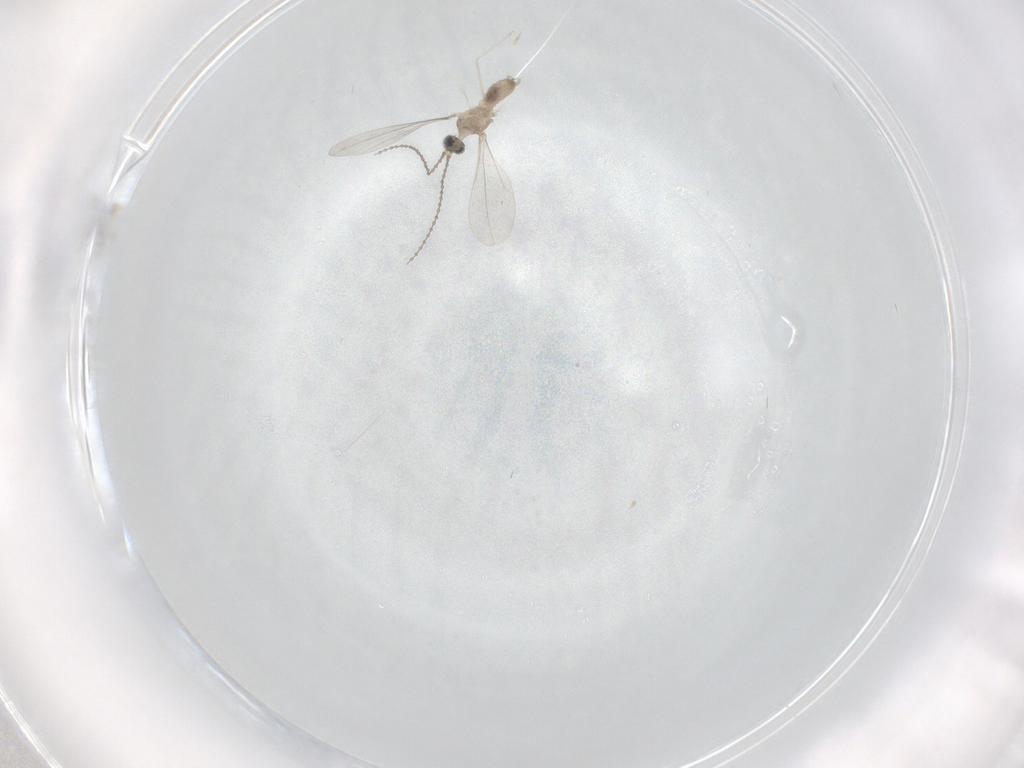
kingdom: Animalia
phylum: Arthropoda
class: Insecta
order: Diptera
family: Cecidomyiidae
